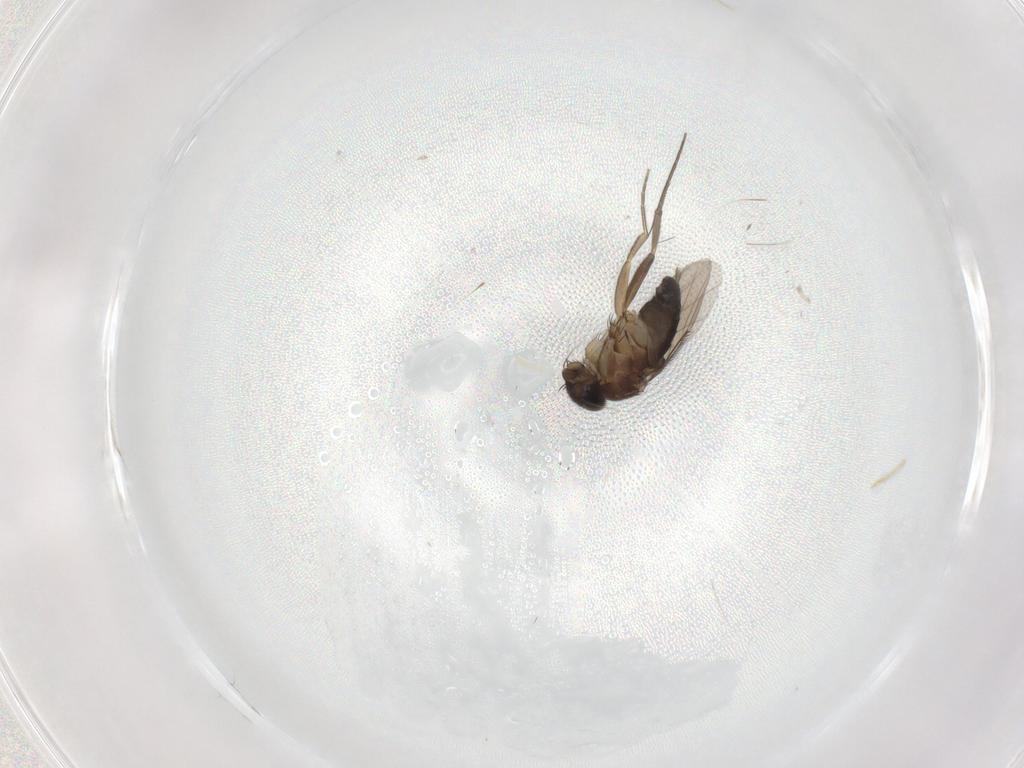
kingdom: Animalia
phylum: Arthropoda
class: Insecta
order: Diptera
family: Phoridae
